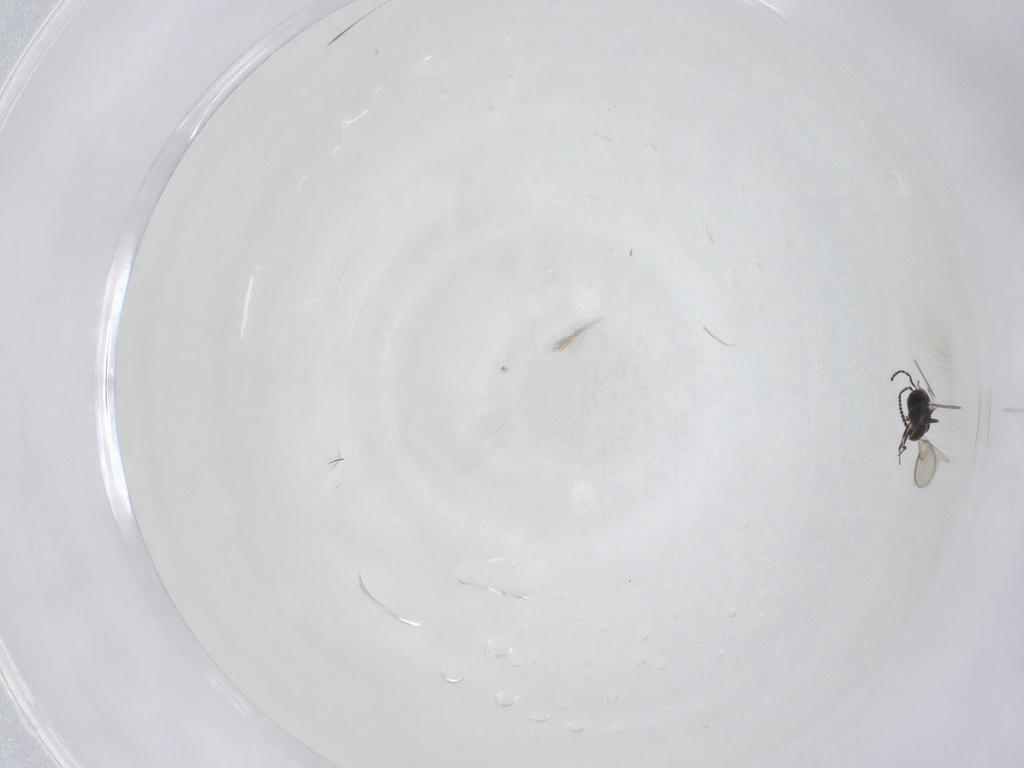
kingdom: Animalia
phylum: Arthropoda
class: Insecta
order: Hymenoptera
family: Scelionidae
